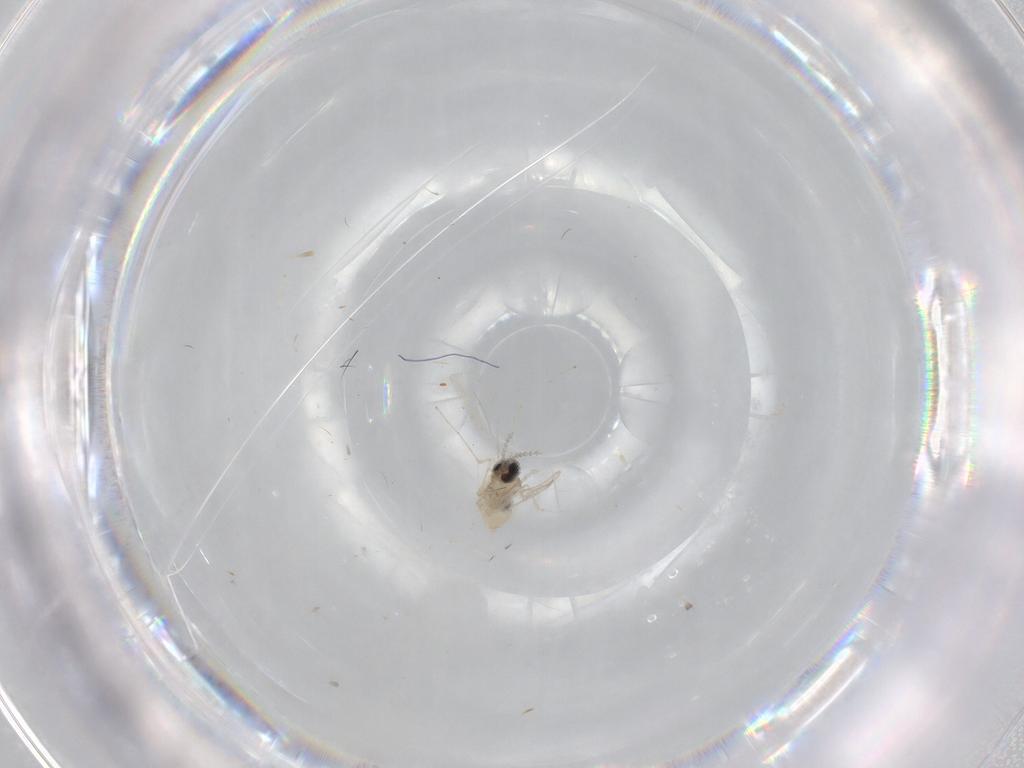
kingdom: Animalia
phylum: Arthropoda
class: Insecta
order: Diptera
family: Cecidomyiidae
